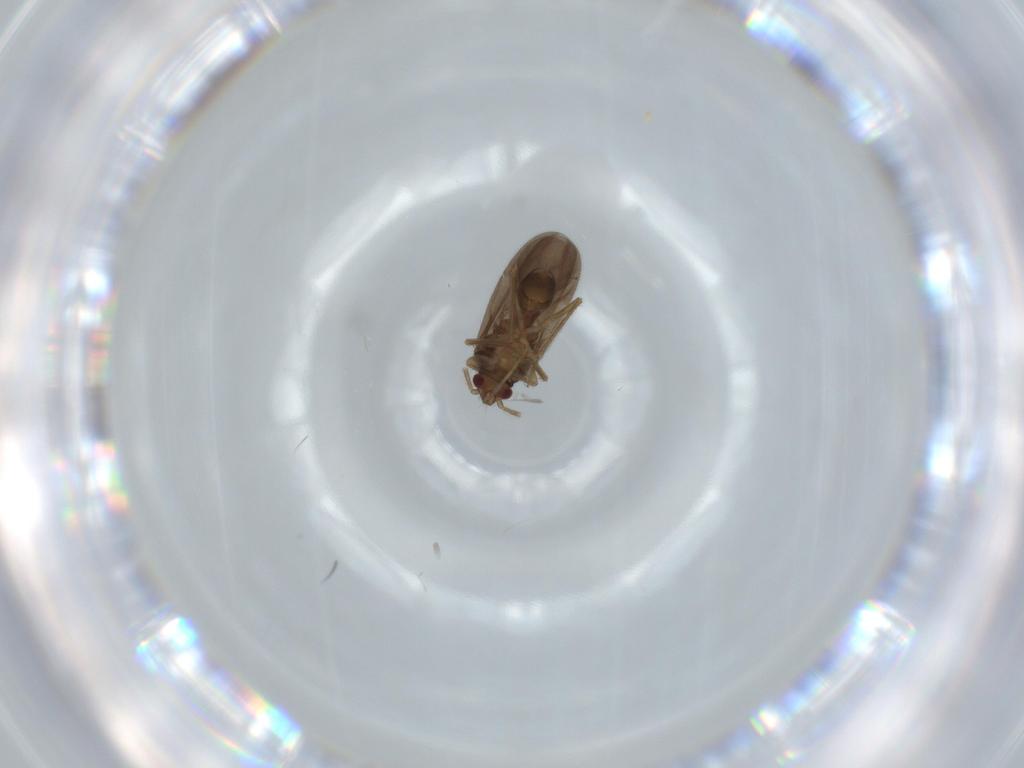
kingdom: Animalia
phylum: Arthropoda
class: Insecta
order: Hemiptera
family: Ceratocombidae
